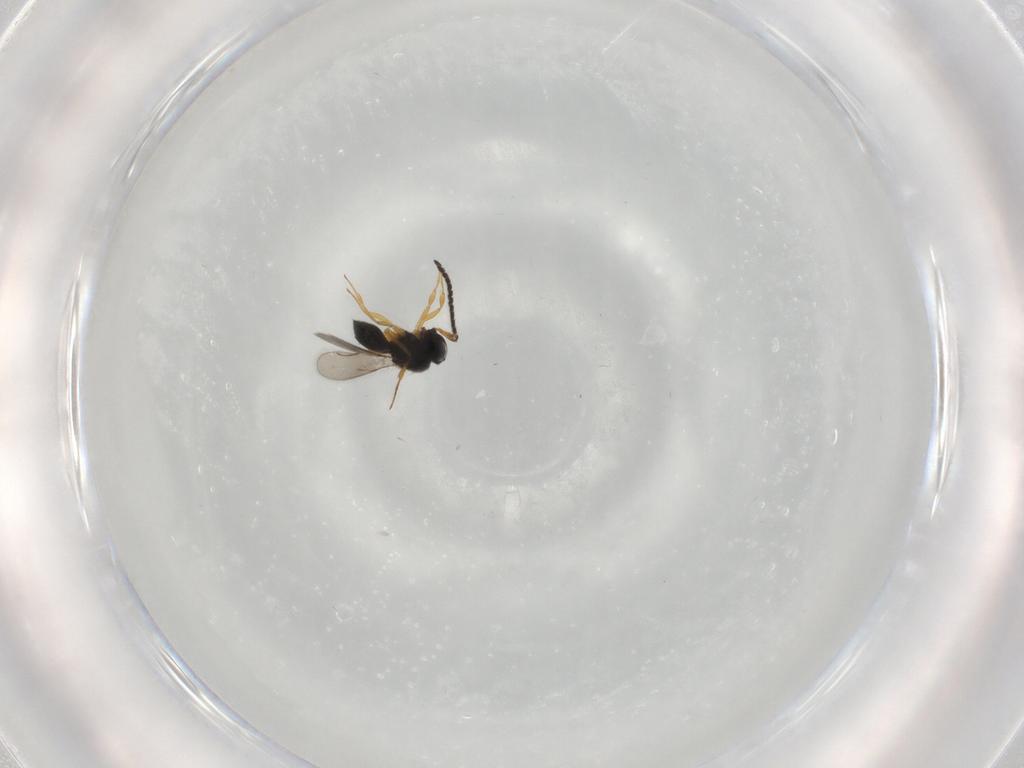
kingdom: Animalia
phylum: Arthropoda
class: Insecta
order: Hymenoptera
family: Scelionidae
